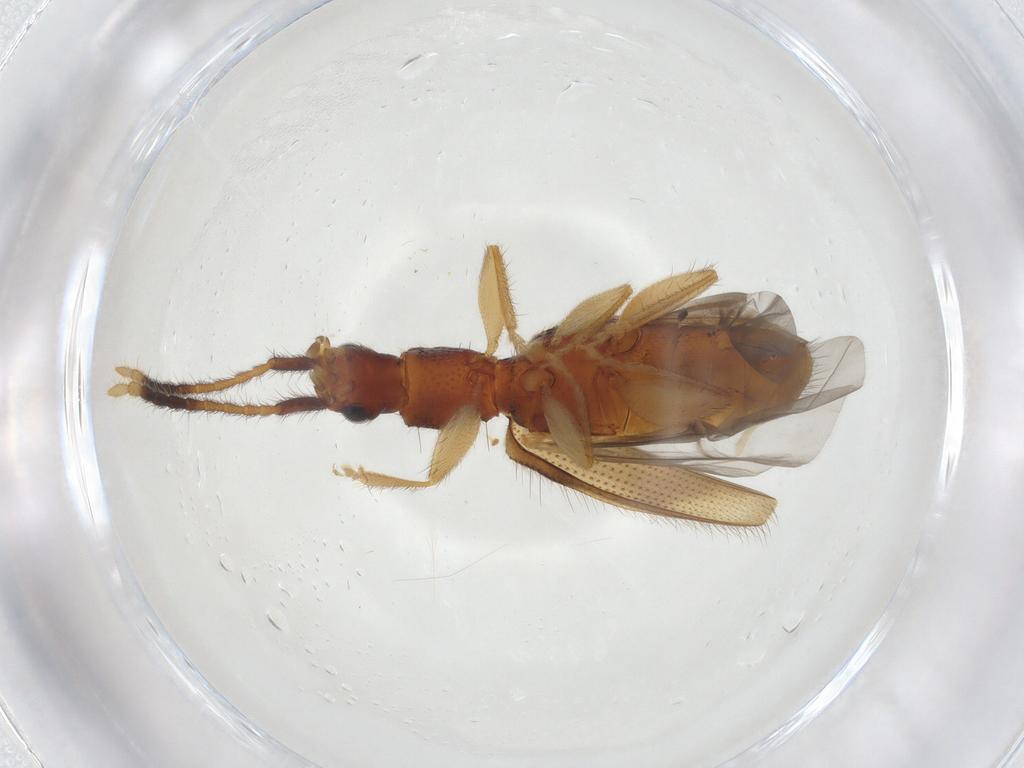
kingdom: Animalia
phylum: Arthropoda
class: Insecta
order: Coleoptera
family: Silvanidae
